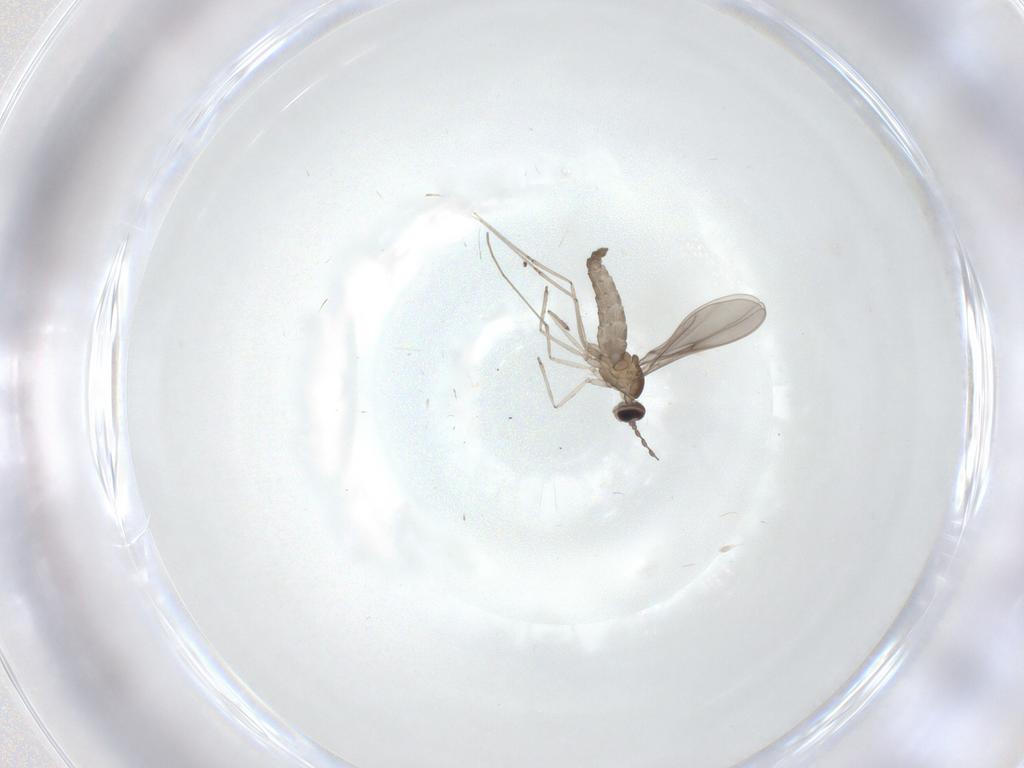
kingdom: Animalia
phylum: Arthropoda
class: Insecta
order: Diptera
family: Cecidomyiidae
